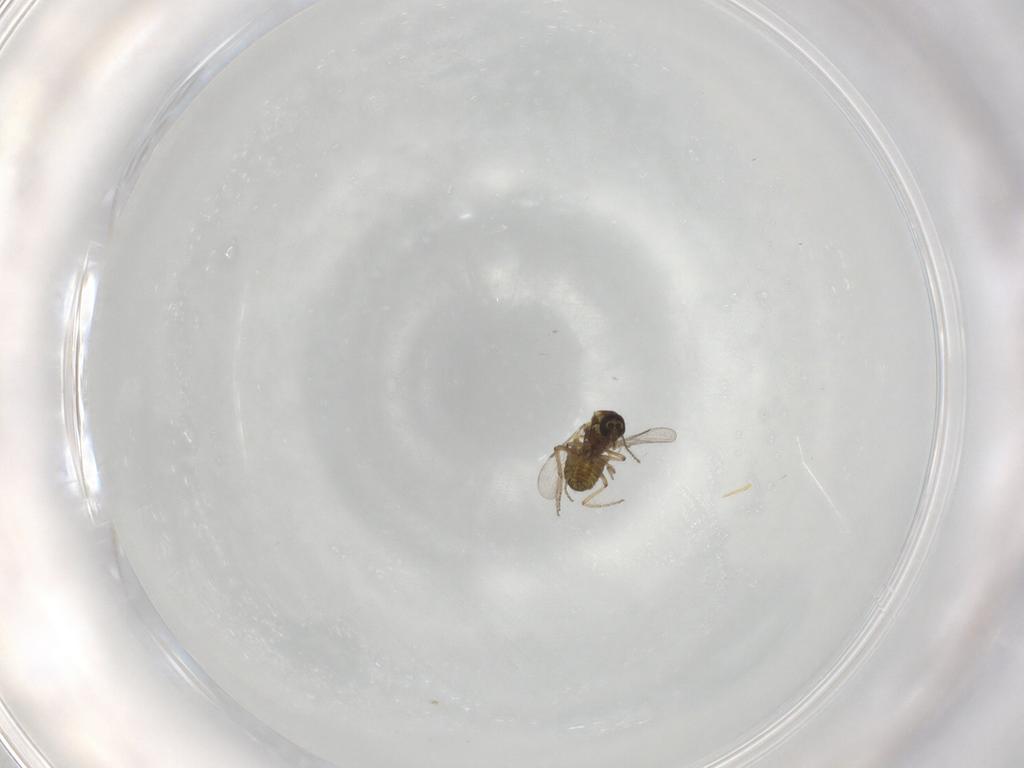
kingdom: Animalia
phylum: Arthropoda
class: Insecta
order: Diptera
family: Ceratopogonidae
